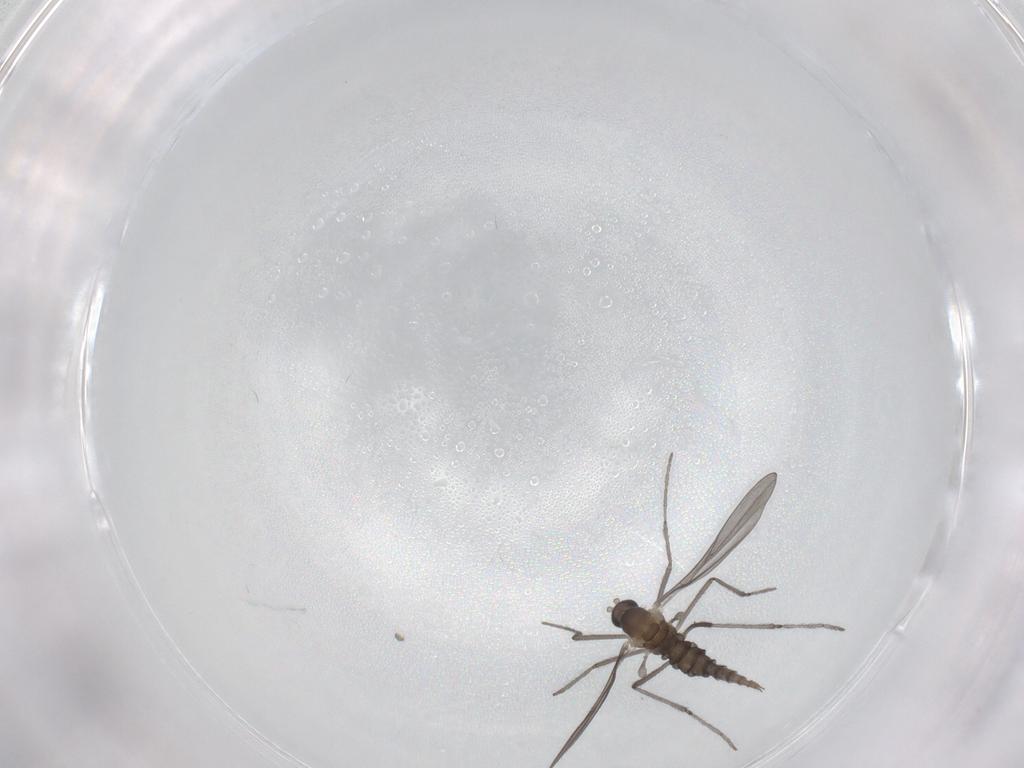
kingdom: Animalia
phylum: Arthropoda
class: Insecta
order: Diptera
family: Cecidomyiidae
